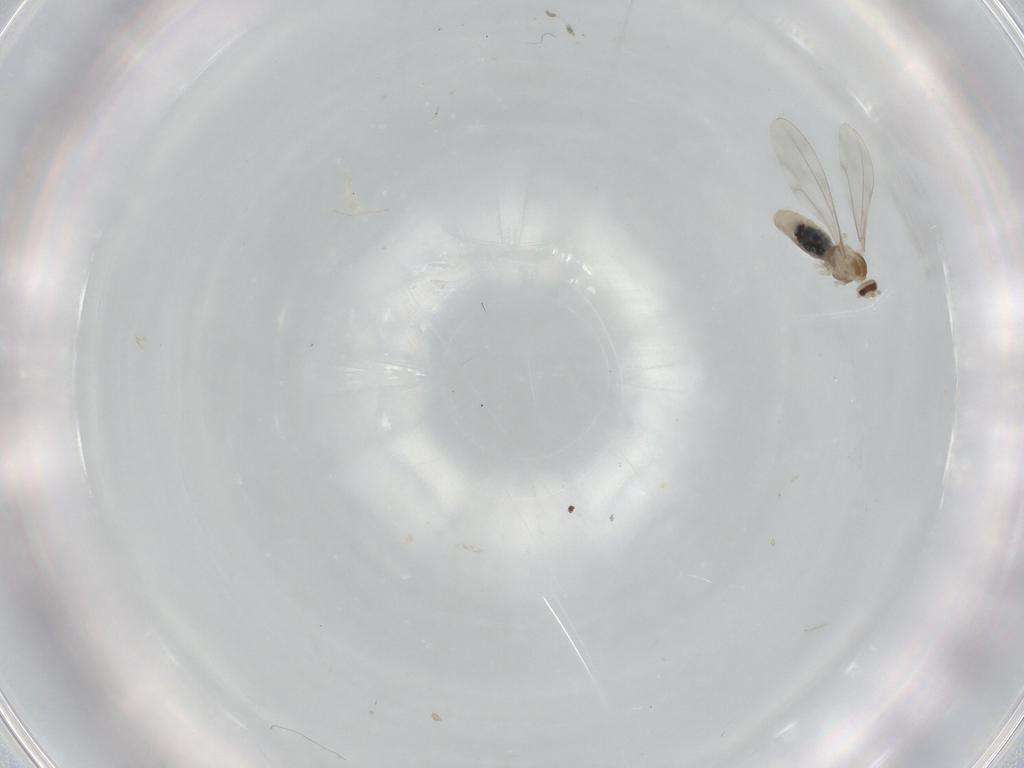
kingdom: Animalia
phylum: Arthropoda
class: Insecta
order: Diptera
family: Cecidomyiidae
